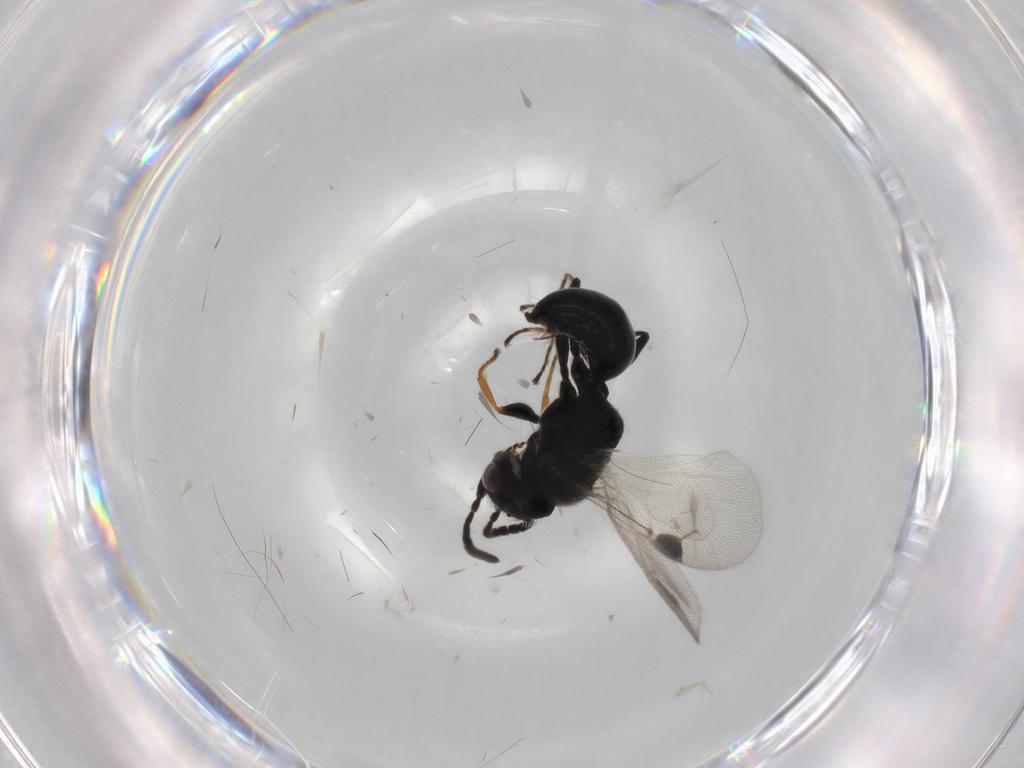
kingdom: Animalia
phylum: Arthropoda
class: Insecta
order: Hymenoptera
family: Dryinidae
